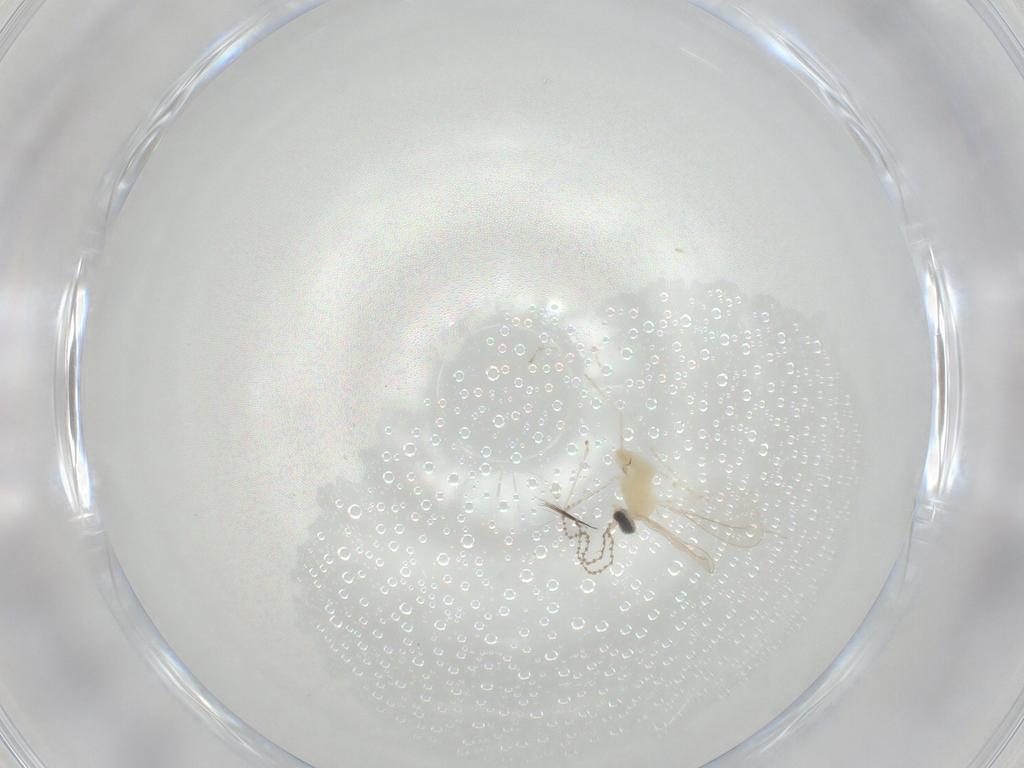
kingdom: Animalia
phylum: Arthropoda
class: Insecta
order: Diptera
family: Cecidomyiidae
